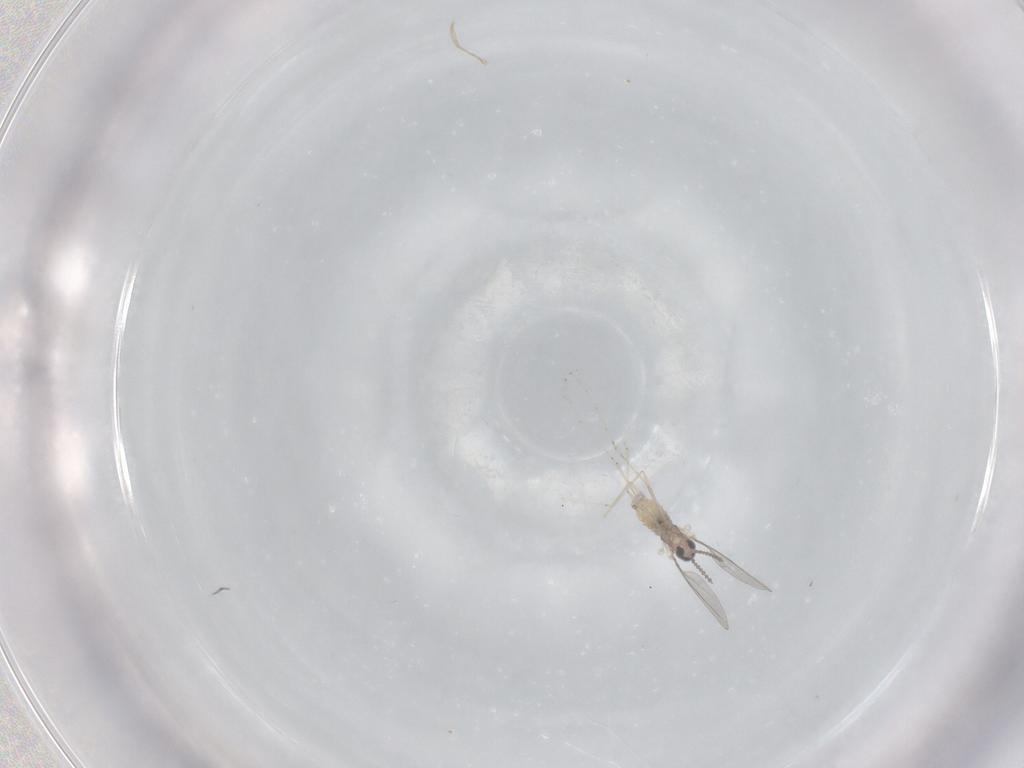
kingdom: Animalia
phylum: Arthropoda
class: Insecta
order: Diptera
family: Cecidomyiidae
